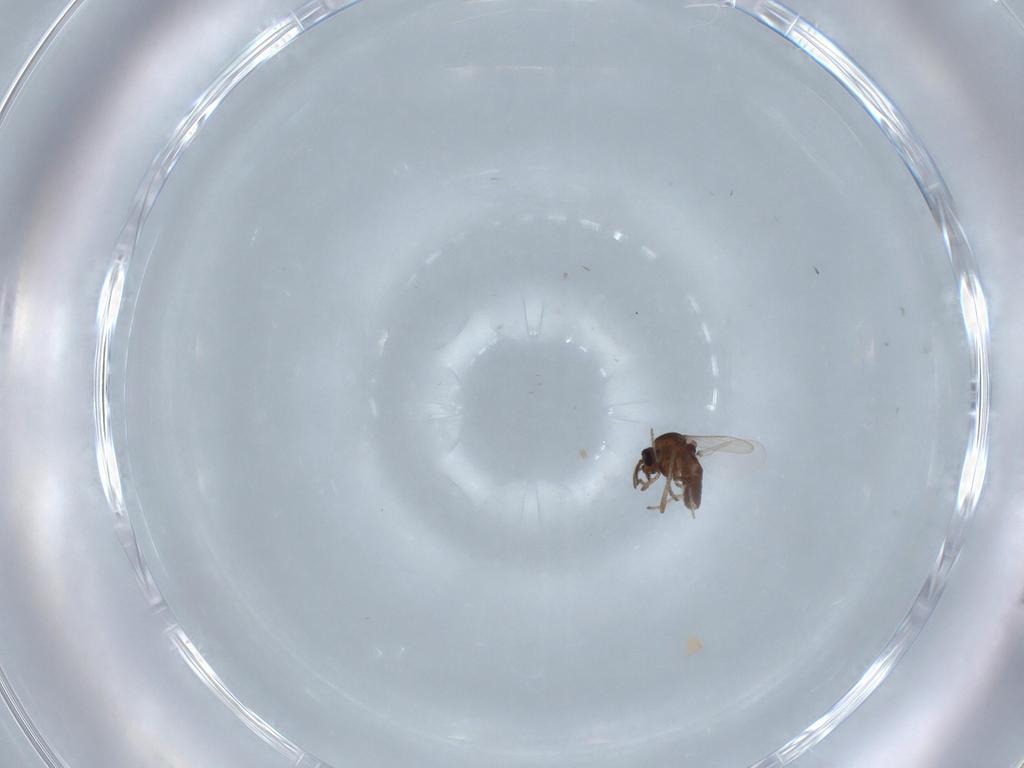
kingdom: Animalia
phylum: Arthropoda
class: Insecta
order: Diptera
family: Ceratopogonidae
